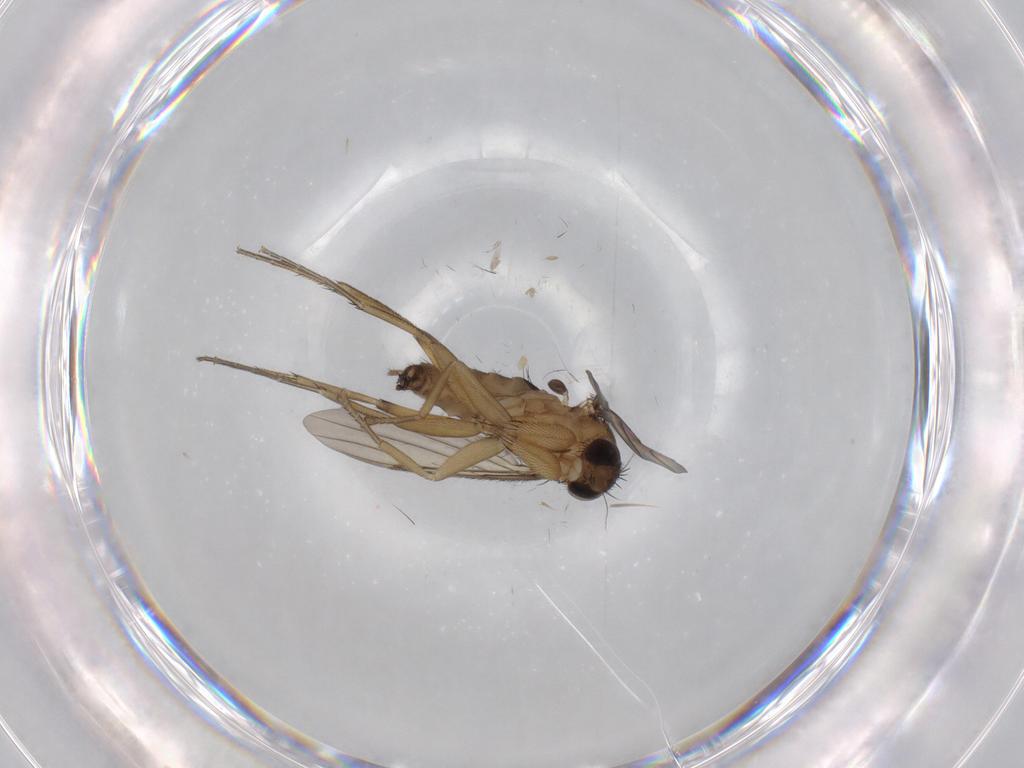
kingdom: Animalia
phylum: Arthropoda
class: Insecta
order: Diptera
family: Phoridae
